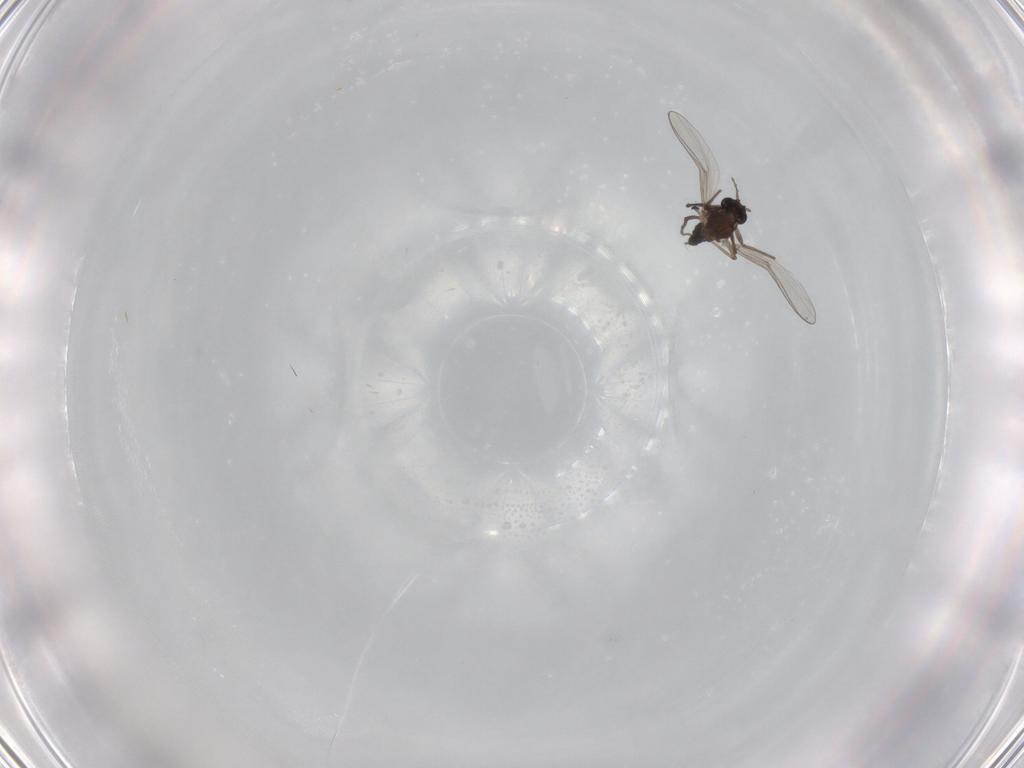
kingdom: Animalia
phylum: Arthropoda
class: Insecta
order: Diptera
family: Chironomidae
